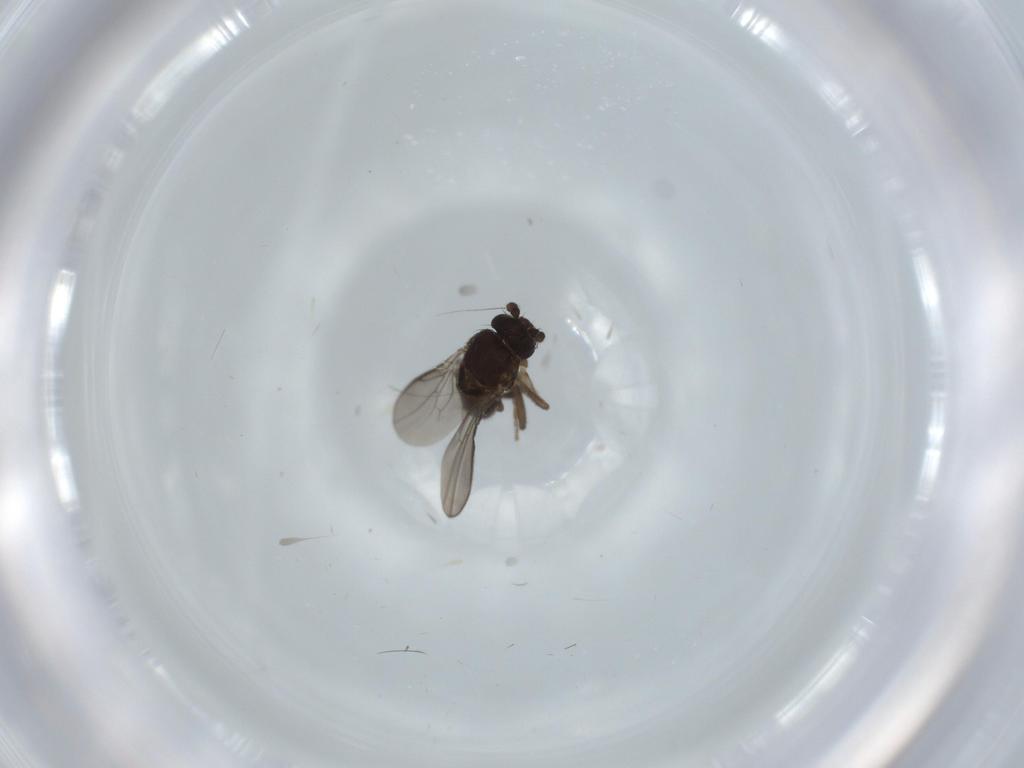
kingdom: Animalia
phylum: Arthropoda
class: Insecta
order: Diptera
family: Sphaeroceridae
